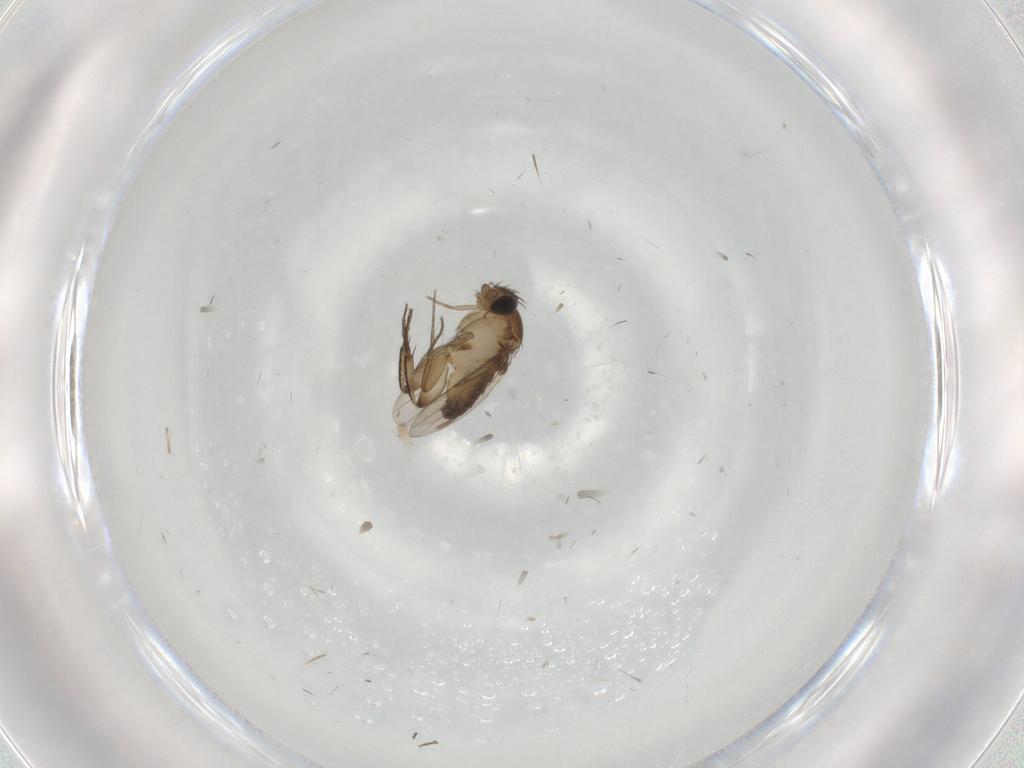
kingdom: Animalia
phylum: Arthropoda
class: Insecta
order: Diptera
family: Phoridae
